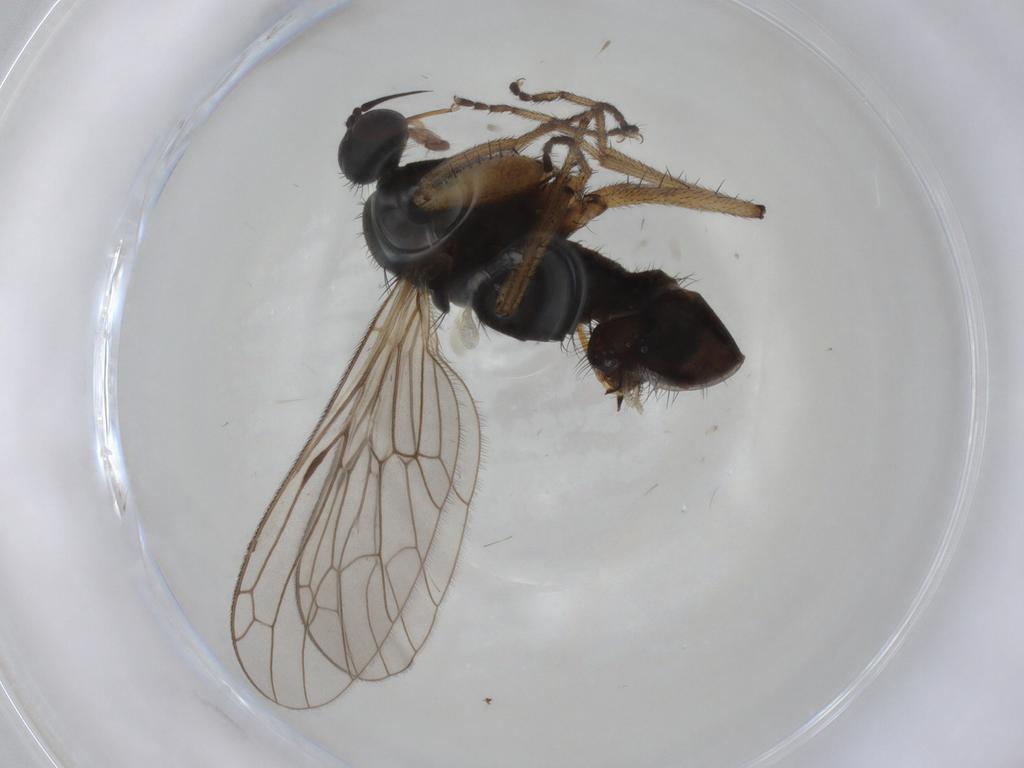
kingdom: Animalia
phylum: Arthropoda
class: Insecta
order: Diptera
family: Empididae
